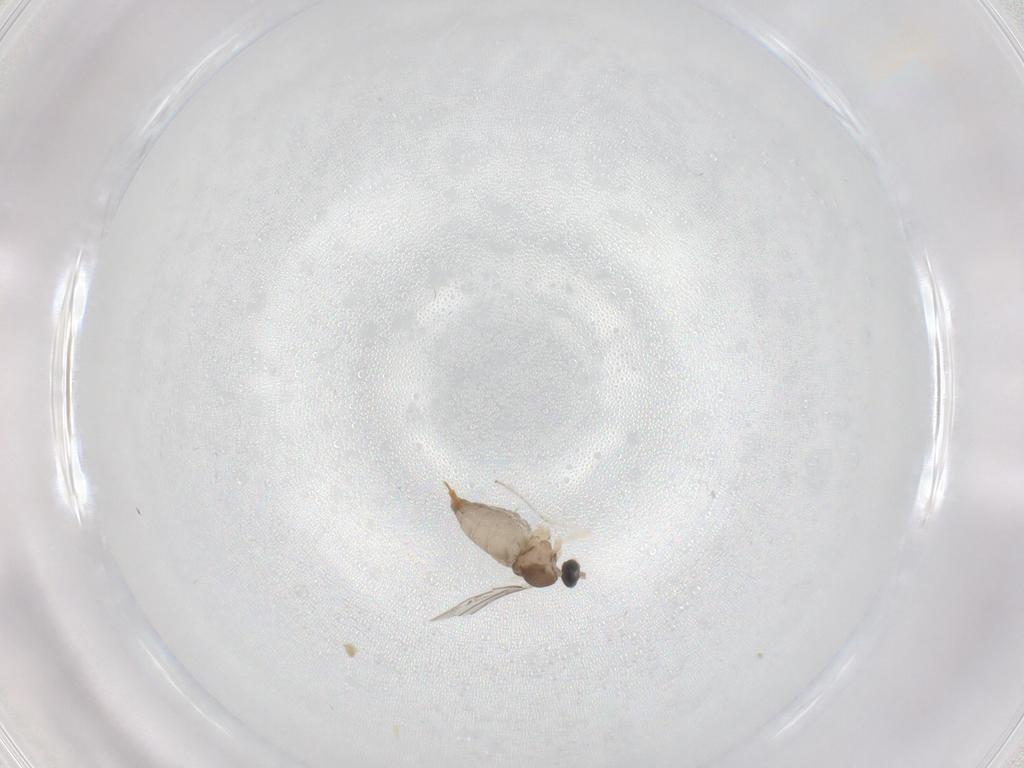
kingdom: Animalia
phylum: Arthropoda
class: Insecta
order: Diptera
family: Cecidomyiidae
